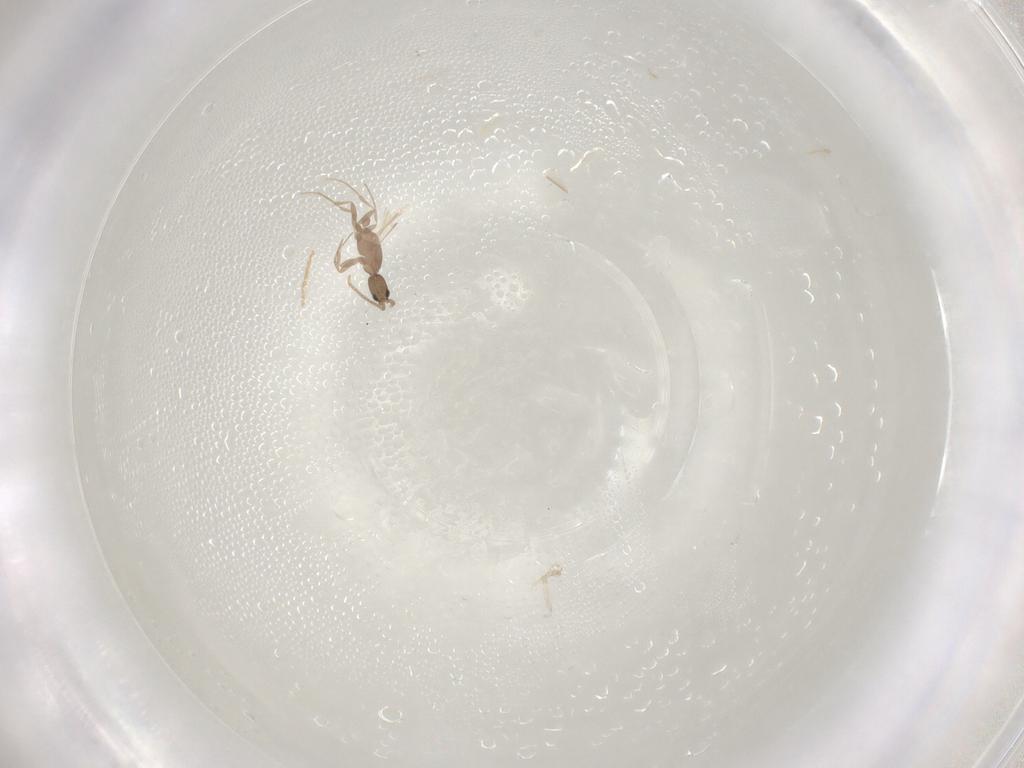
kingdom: Animalia
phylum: Arthropoda
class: Insecta
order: Hymenoptera
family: Formicidae
